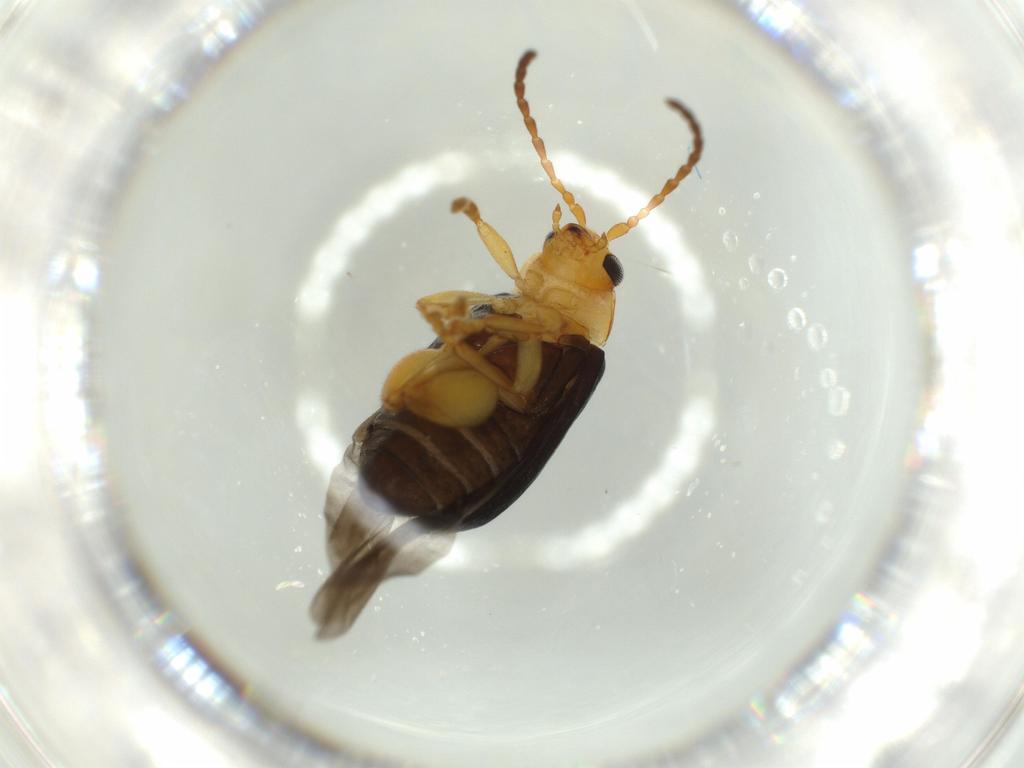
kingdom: Animalia
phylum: Arthropoda
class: Insecta
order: Coleoptera
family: Chrysomelidae
